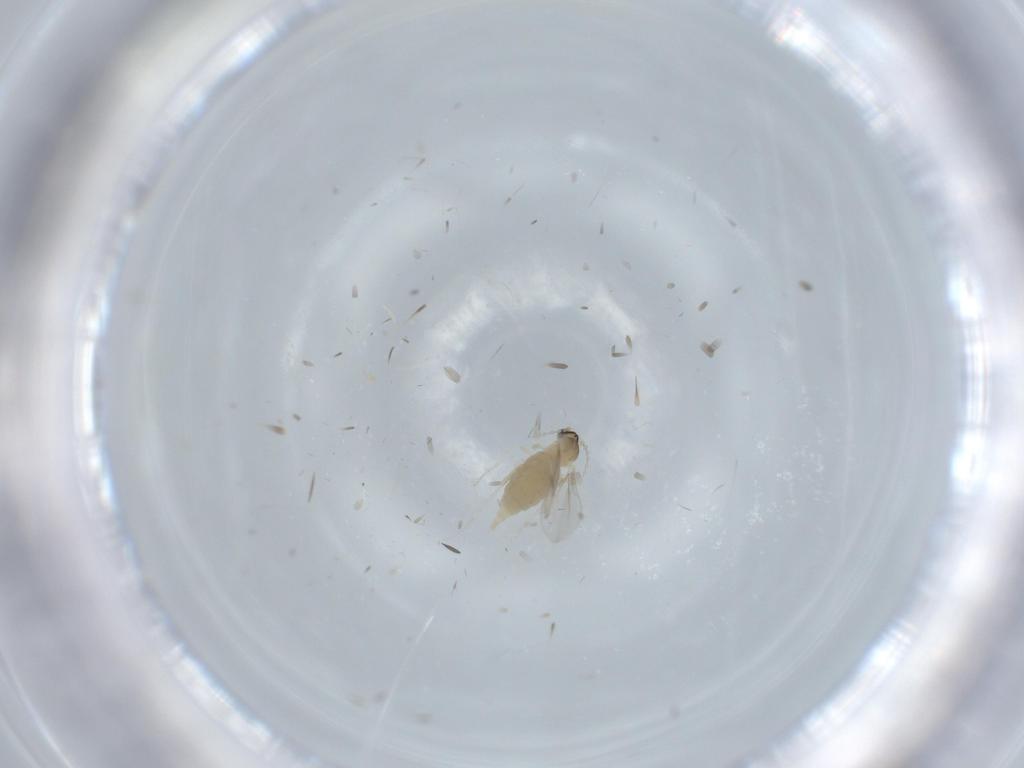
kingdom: Animalia
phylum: Arthropoda
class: Insecta
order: Diptera
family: Cecidomyiidae
